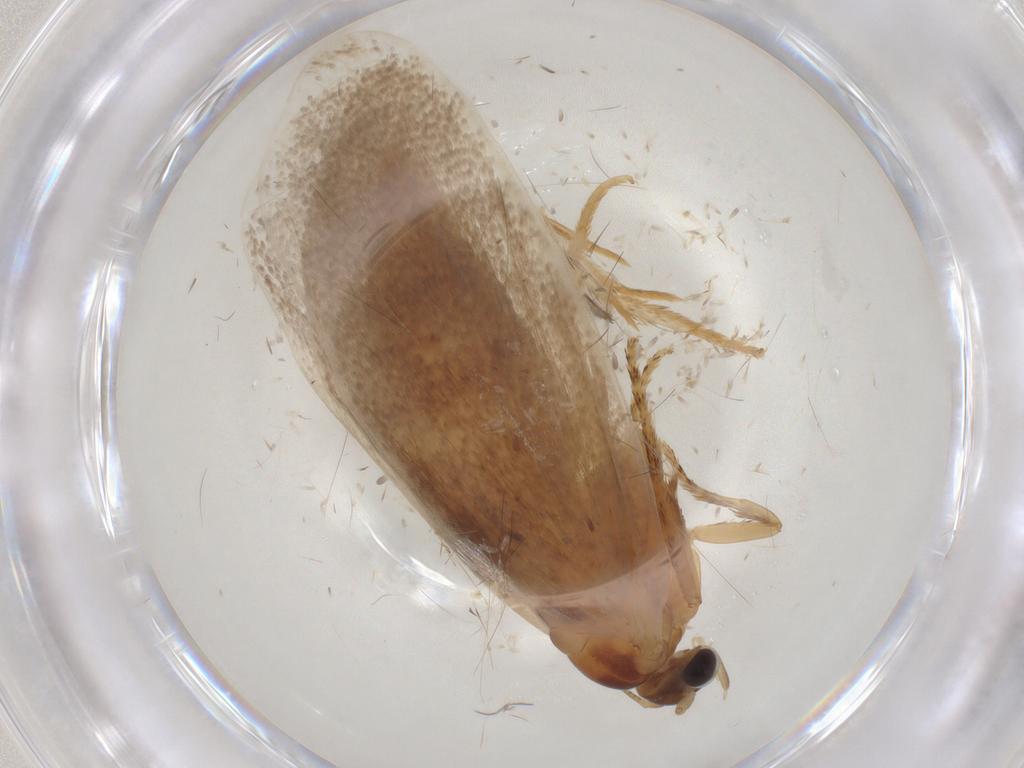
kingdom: Animalia
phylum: Arthropoda
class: Insecta
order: Lepidoptera
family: Eriocottidae
